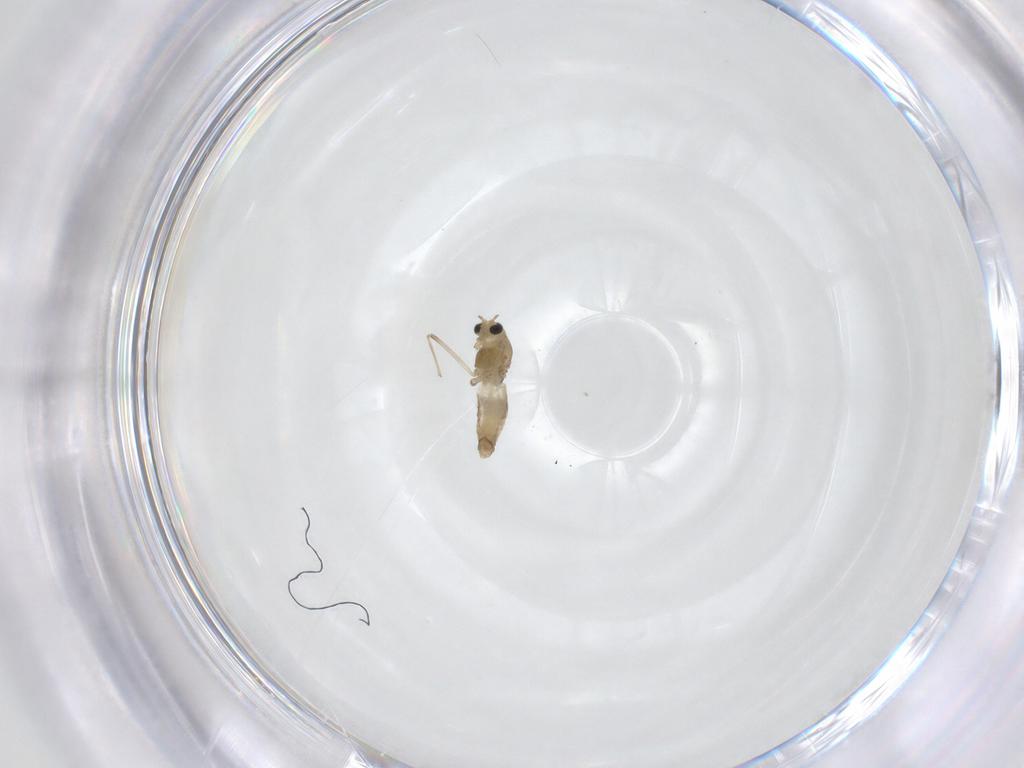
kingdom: Animalia
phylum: Arthropoda
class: Insecta
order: Diptera
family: Chironomidae
